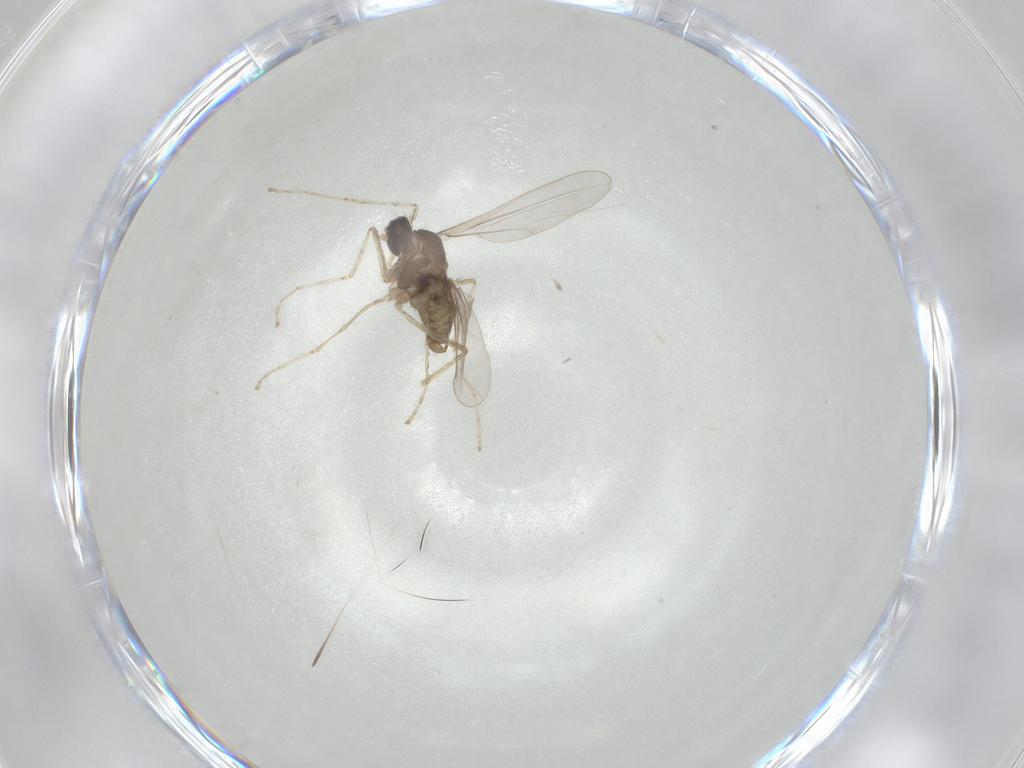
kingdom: Animalia
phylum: Arthropoda
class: Insecta
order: Diptera
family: Cecidomyiidae
